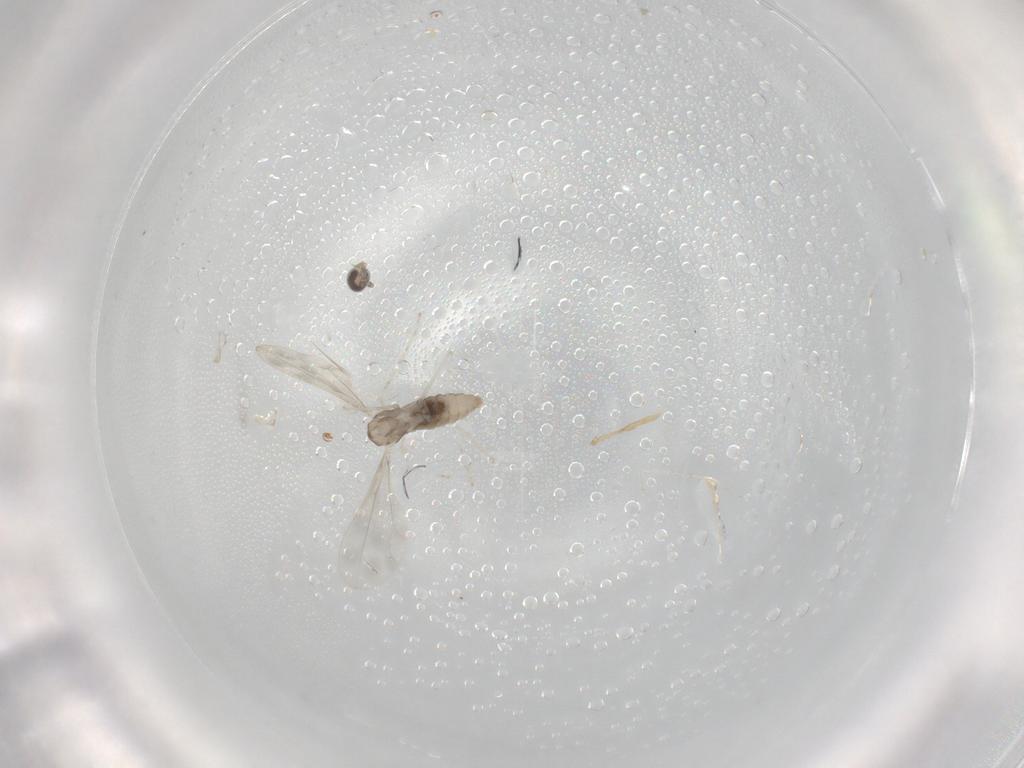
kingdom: Animalia
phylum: Arthropoda
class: Insecta
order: Diptera
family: Cecidomyiidae
